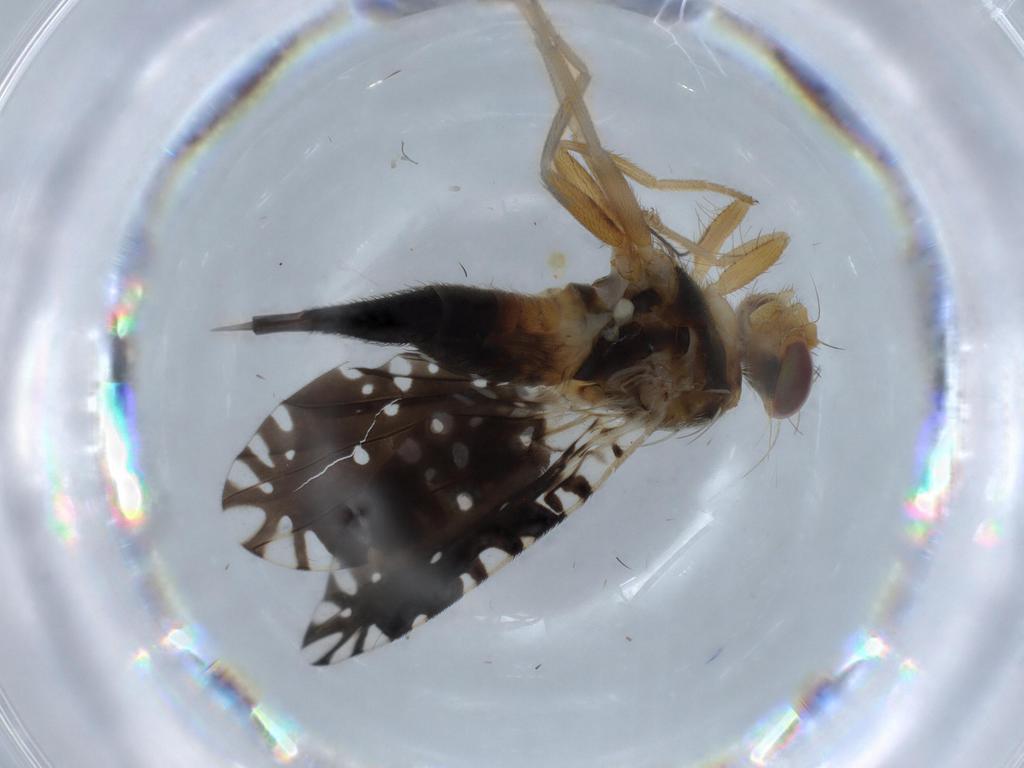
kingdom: Animalia
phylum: Arthropoda
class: Insecta
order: Diptera
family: Tephritidae
